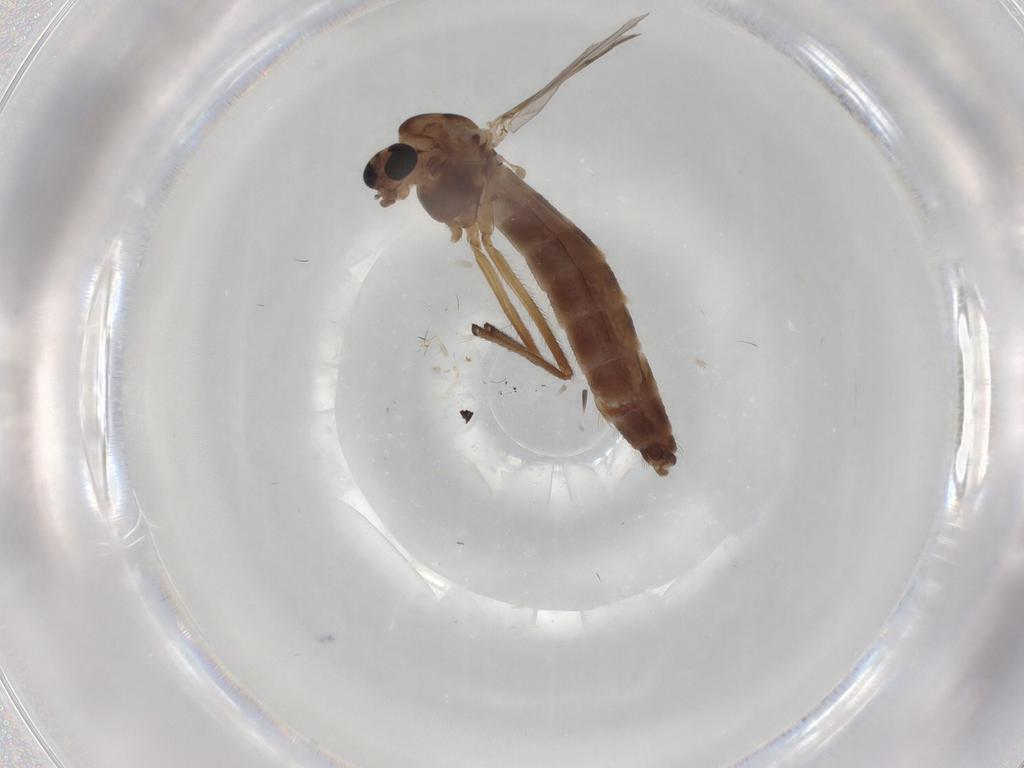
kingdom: Animalia
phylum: Arthropoda
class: Insecta
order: Diptera
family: Chironomidae
